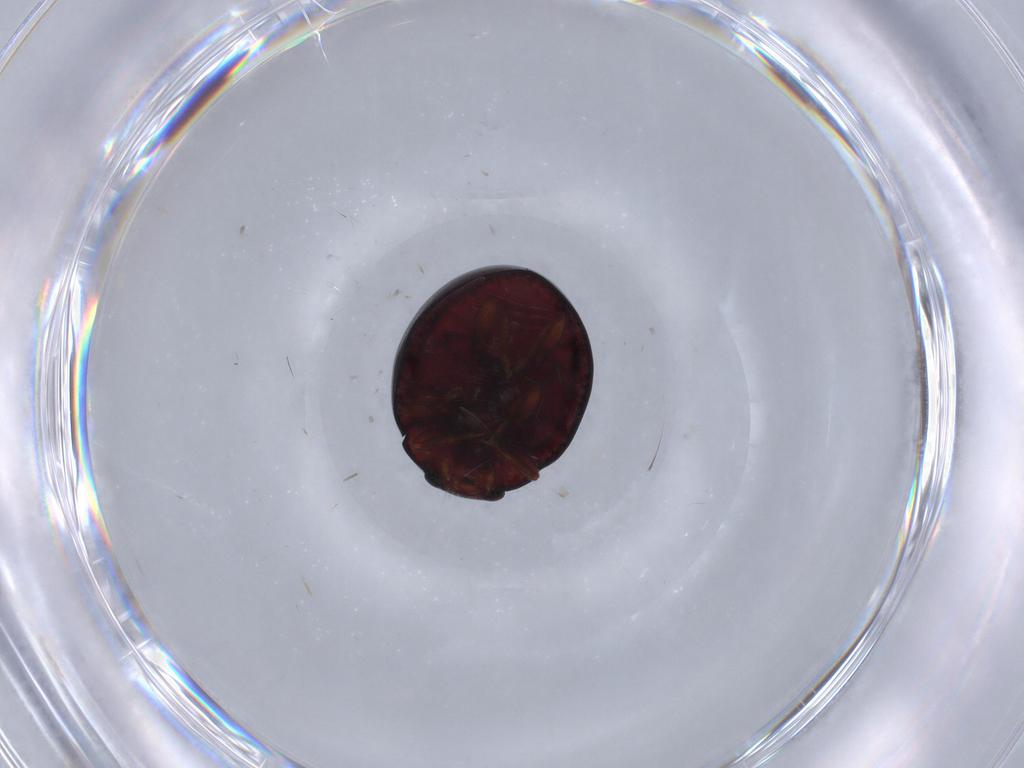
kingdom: Animalia
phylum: Arthropoda
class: Insecta
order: Coleoptera
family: Coccinellidae
